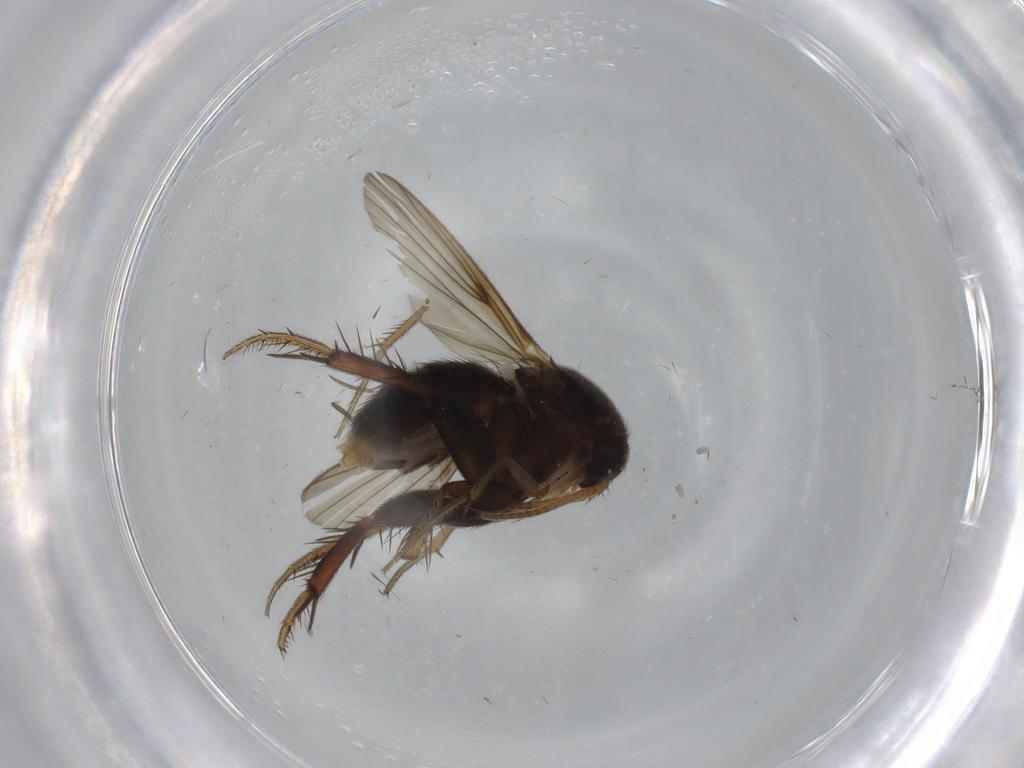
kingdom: Animalia
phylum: Arthropoda
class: Insecta
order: Diptera
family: Mycetophilidae
